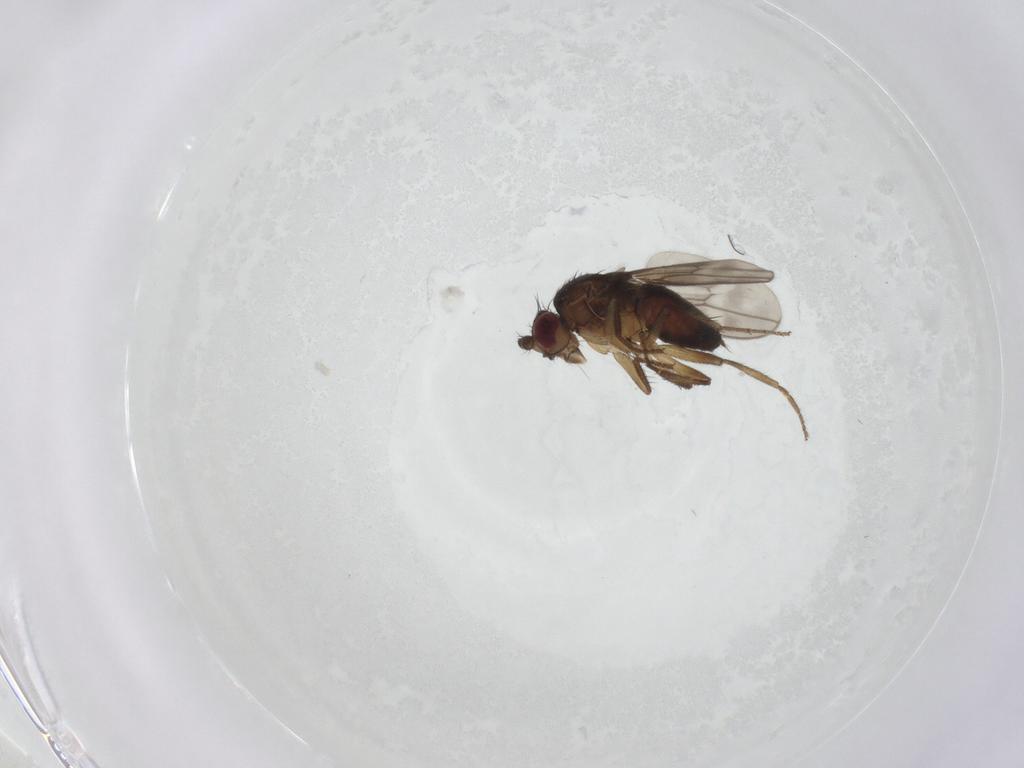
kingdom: Animalia
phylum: Arthropoda
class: Insecta
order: Diptera
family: Sphaeroceridae
